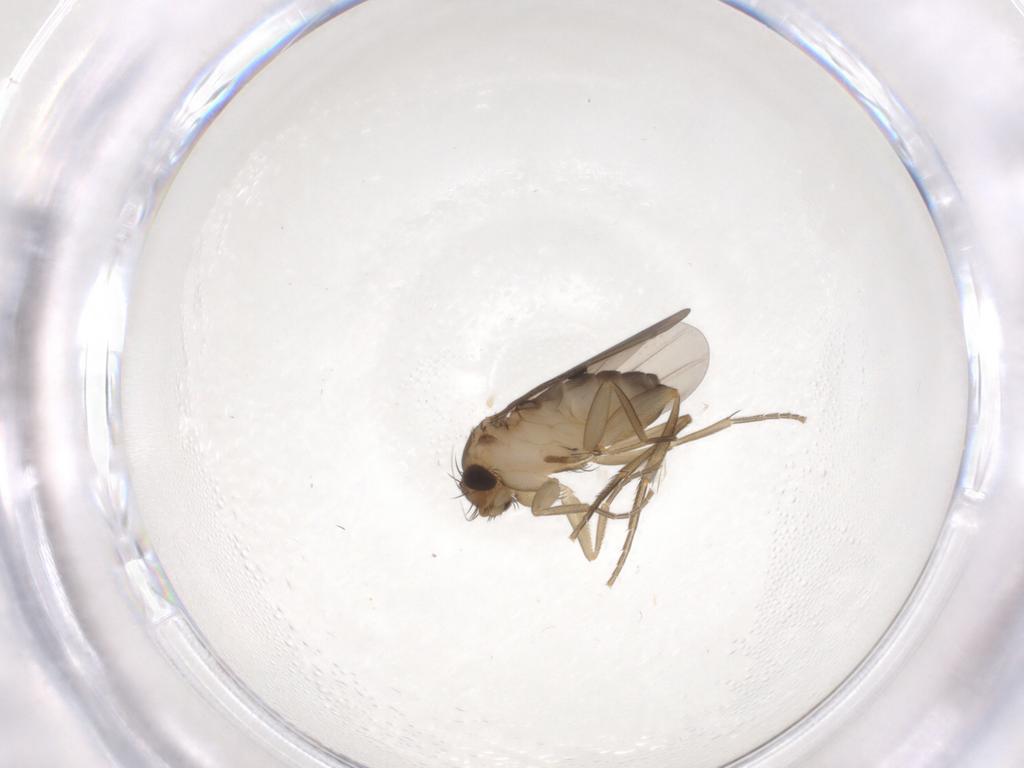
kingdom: Animalia
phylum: Arthropoda
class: Insecta
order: Diptera
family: Phoridae
